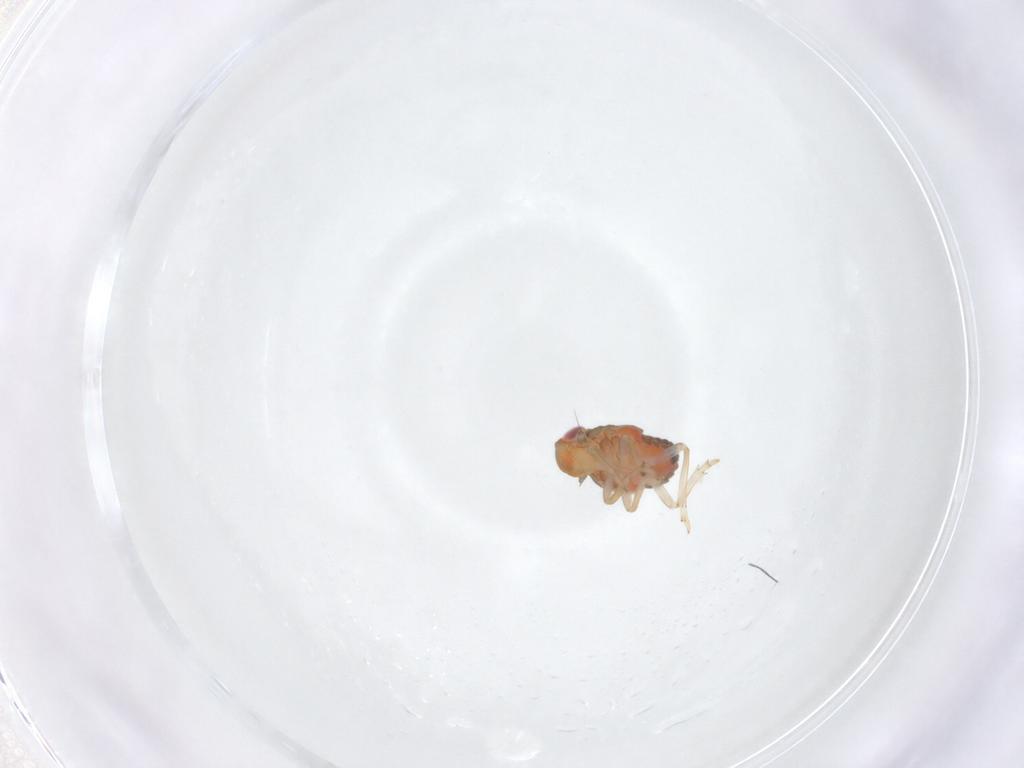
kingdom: Animalia
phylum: Arthropoda
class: Insecta
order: Hemiptera
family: Issidae
